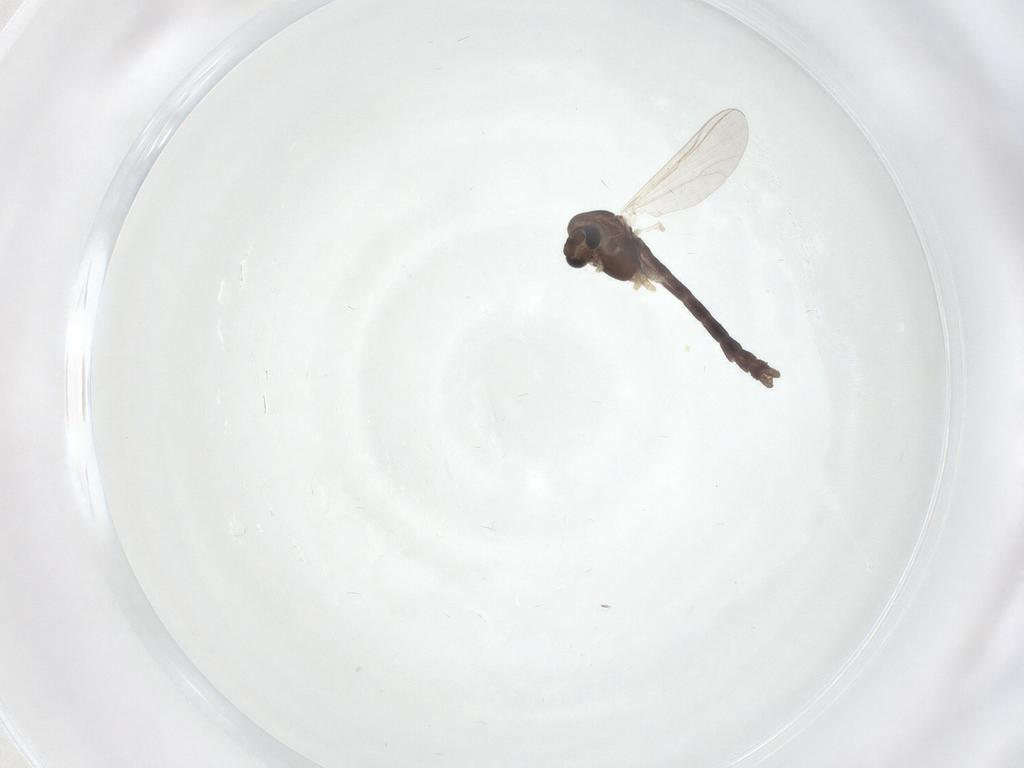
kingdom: Animalia
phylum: Arthropoda
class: Insecta
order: Diptera
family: Chironomidae
